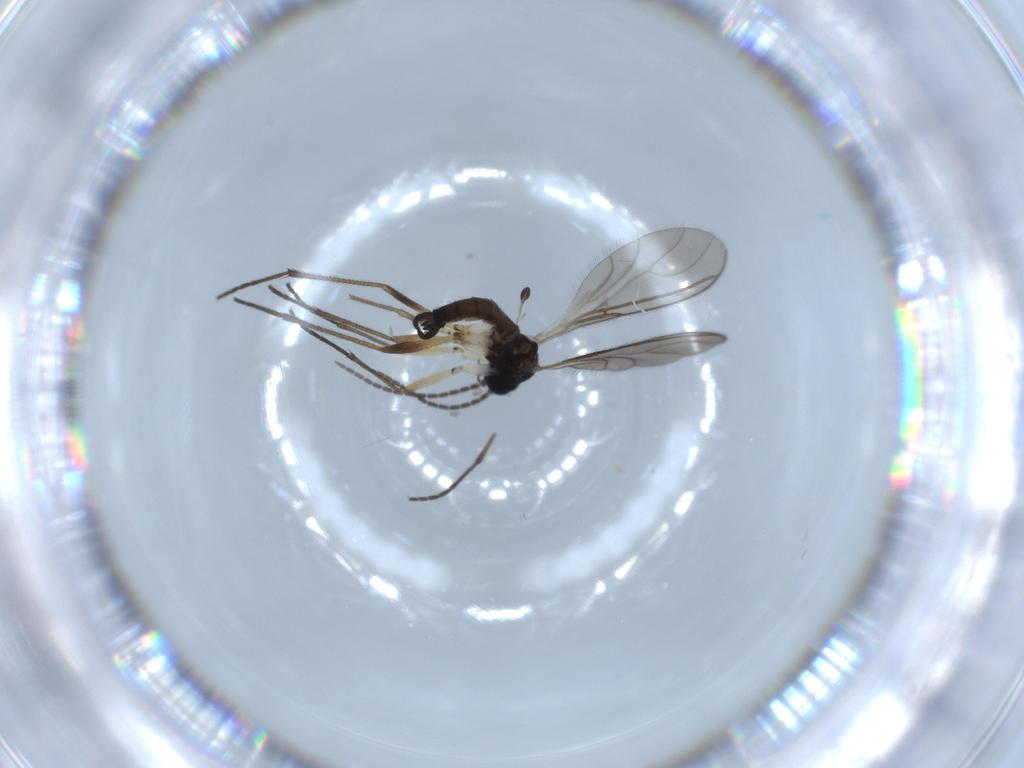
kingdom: Animalia
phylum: Arthropoda
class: Insecta
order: Diptera
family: Sciaridae
